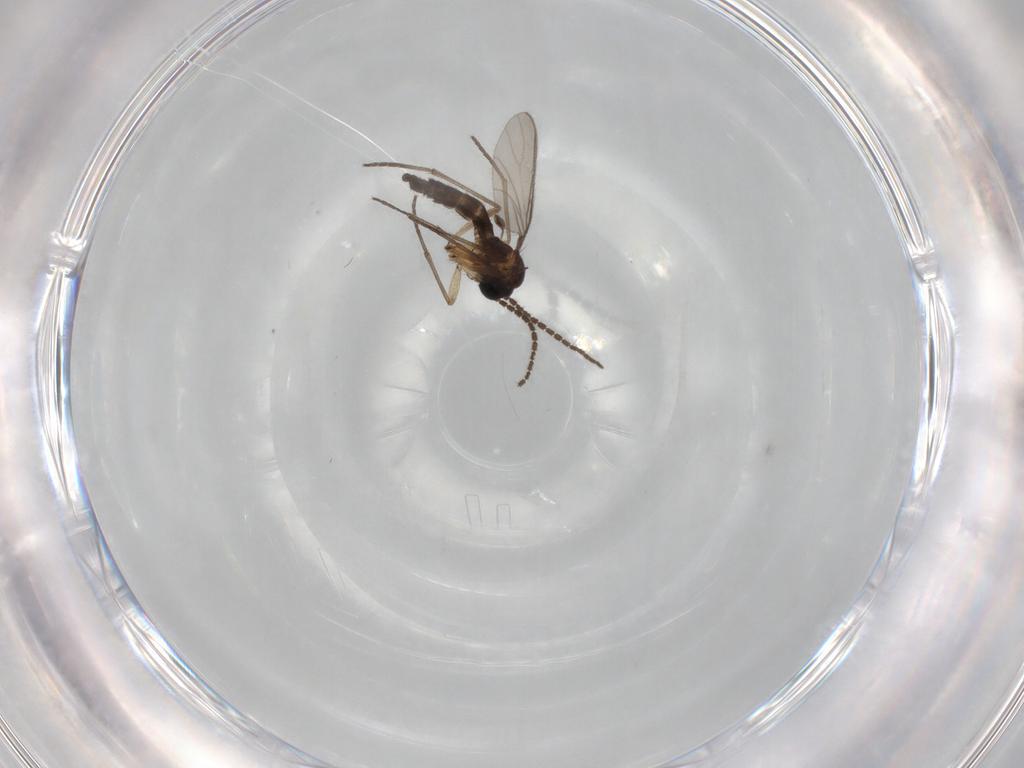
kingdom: Animalia
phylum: Arthropoda
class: Insecta
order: Diptera
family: Sciaridae
